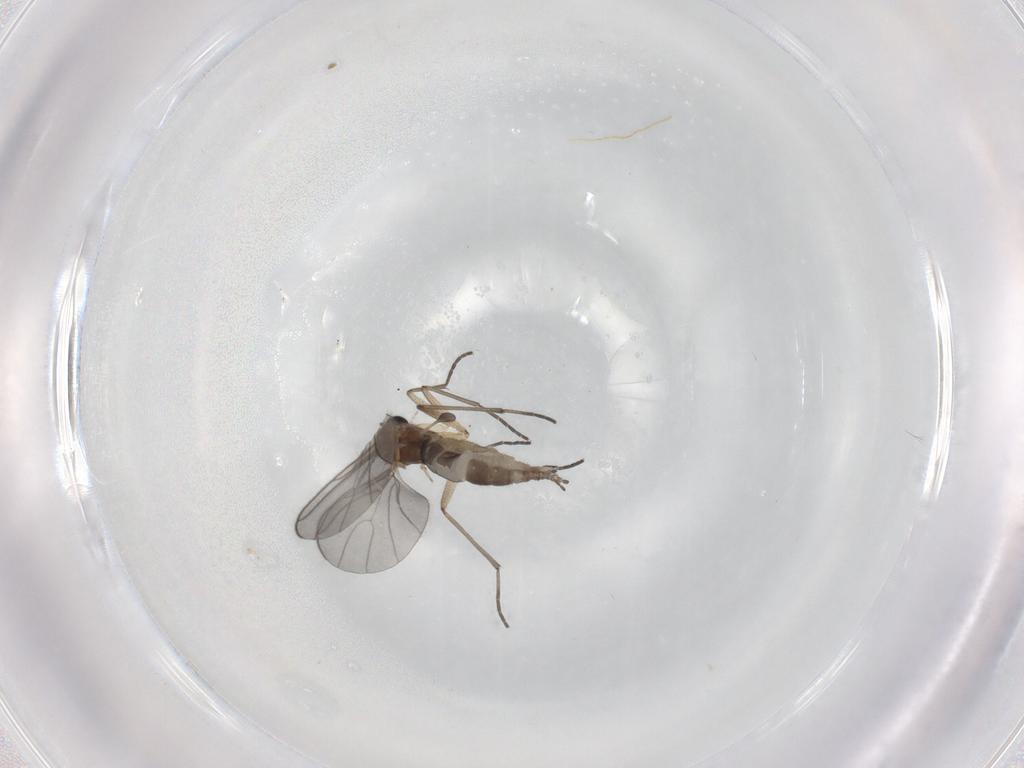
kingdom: Animalia
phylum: Arthropoda
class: Insecta
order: Diptera
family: Sciaridae
